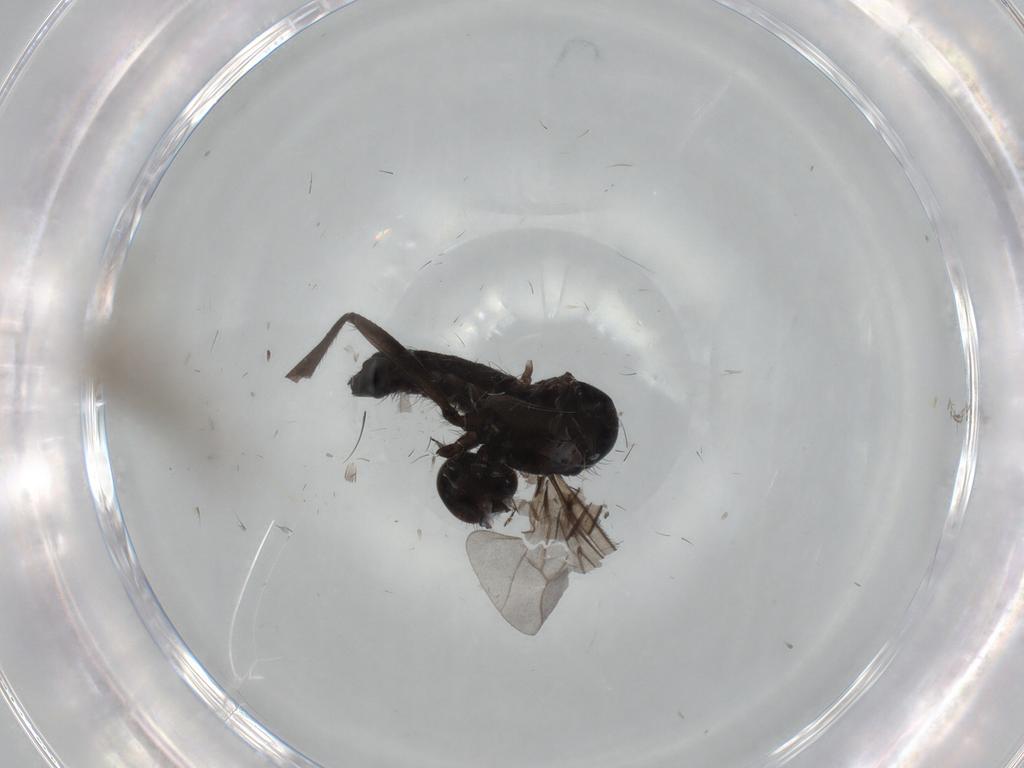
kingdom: Animalia
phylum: Arthropoda
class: Insecta
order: Diptera
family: Hybotidae
